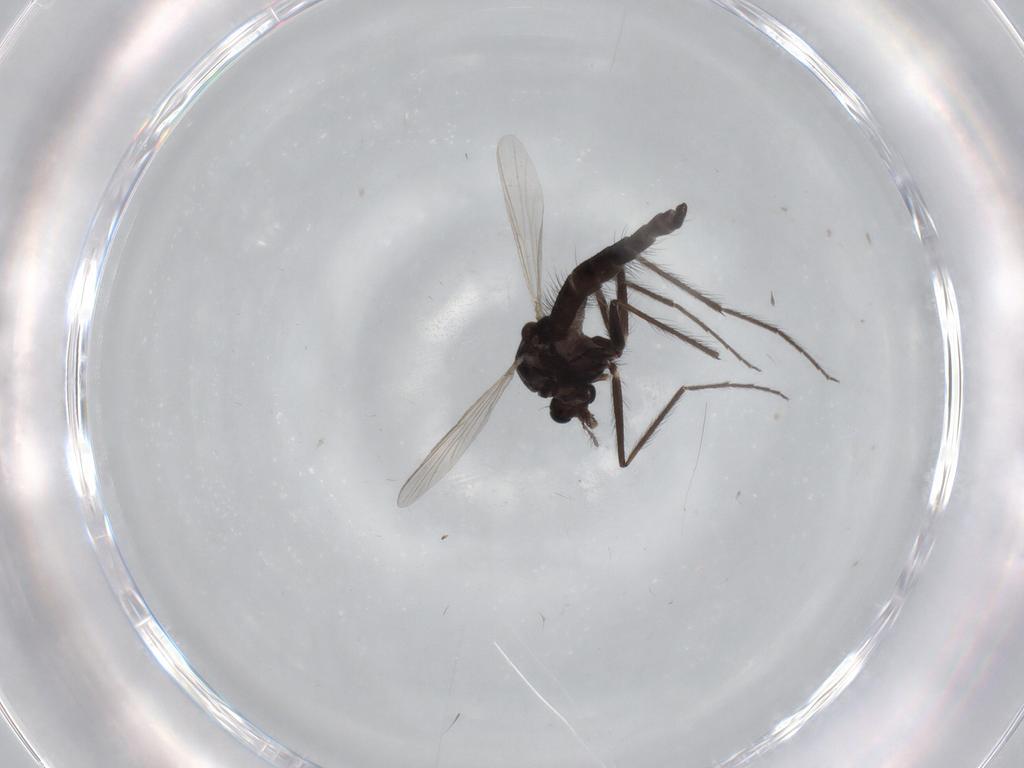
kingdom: Animalia
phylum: Arthropoda
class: Insecta
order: Diptera
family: Chironomidae
